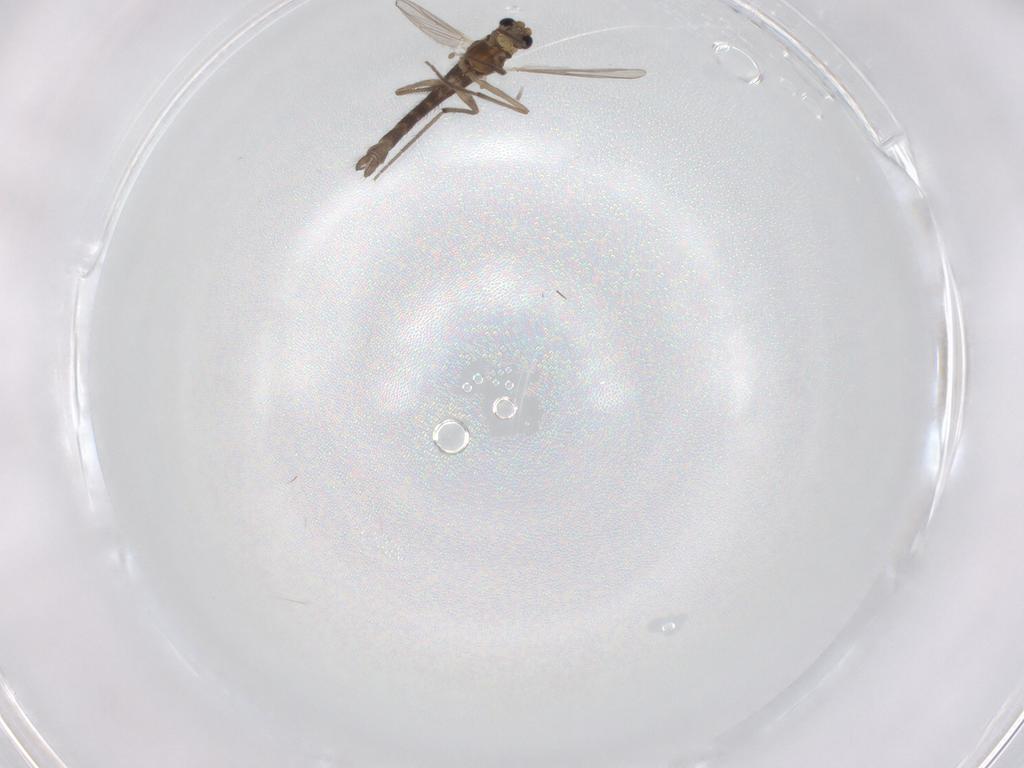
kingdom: Animalia
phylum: Arthropoda
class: Insecta
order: Diptera
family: Chironomidae
